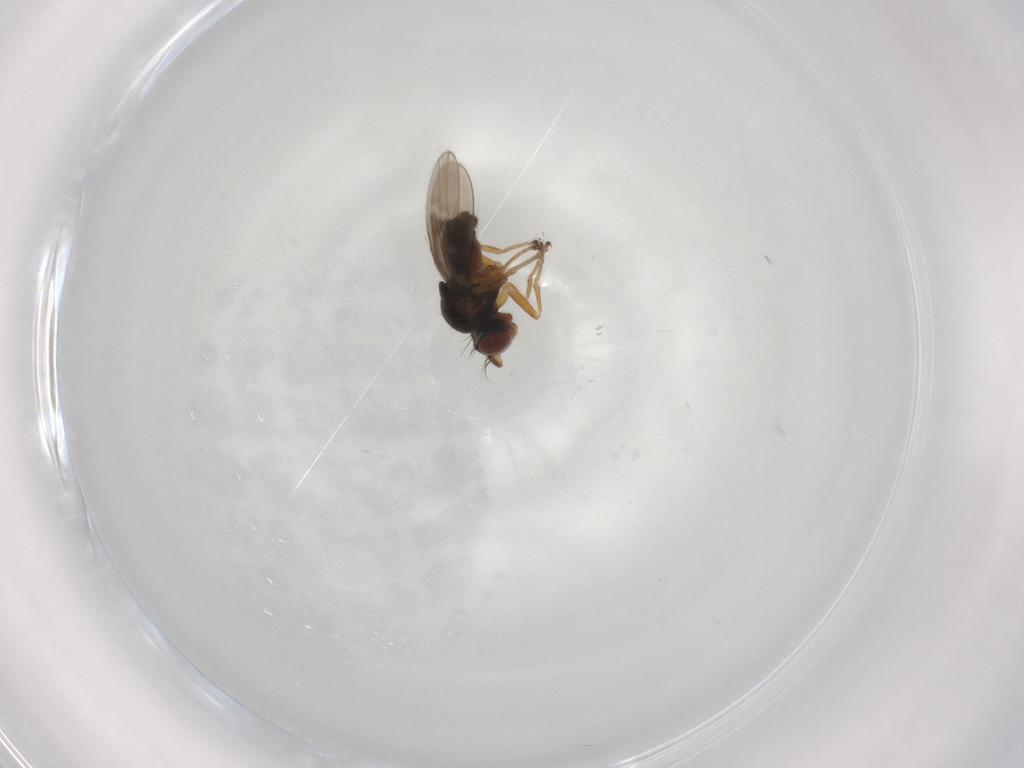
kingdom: Animalia
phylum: Arthropoda
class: Insecta
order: Diptera
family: Ephydridae
